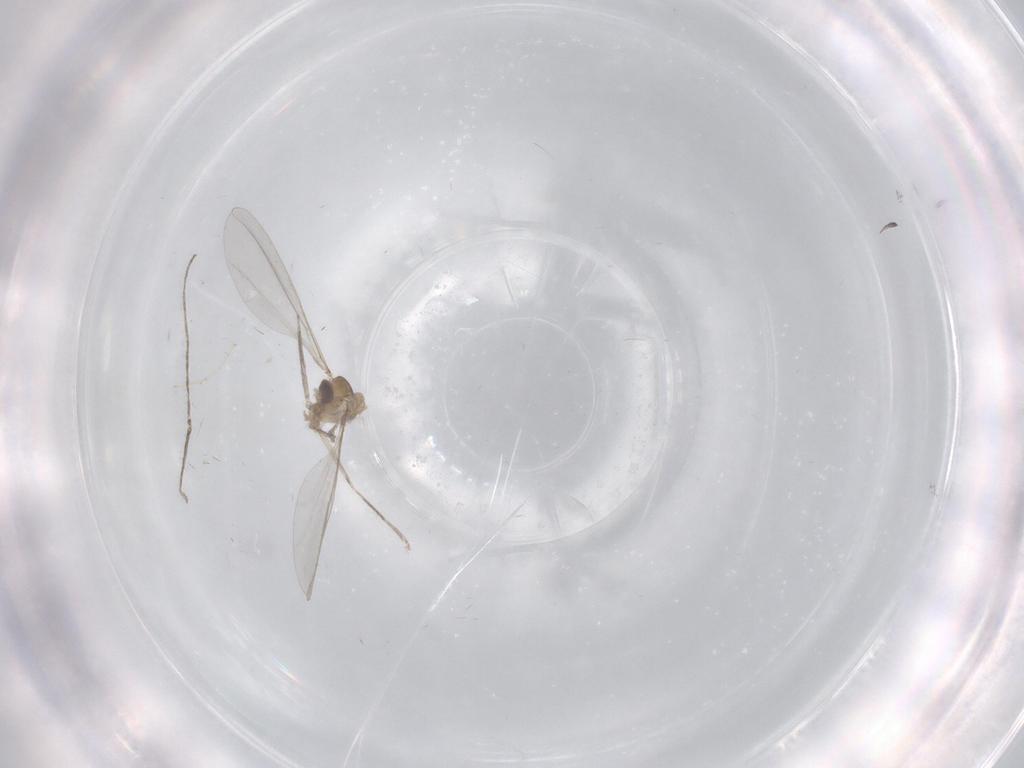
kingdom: Animalia
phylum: Arthropoda
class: Insecta
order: Diptera
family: Cecidomyiidae
